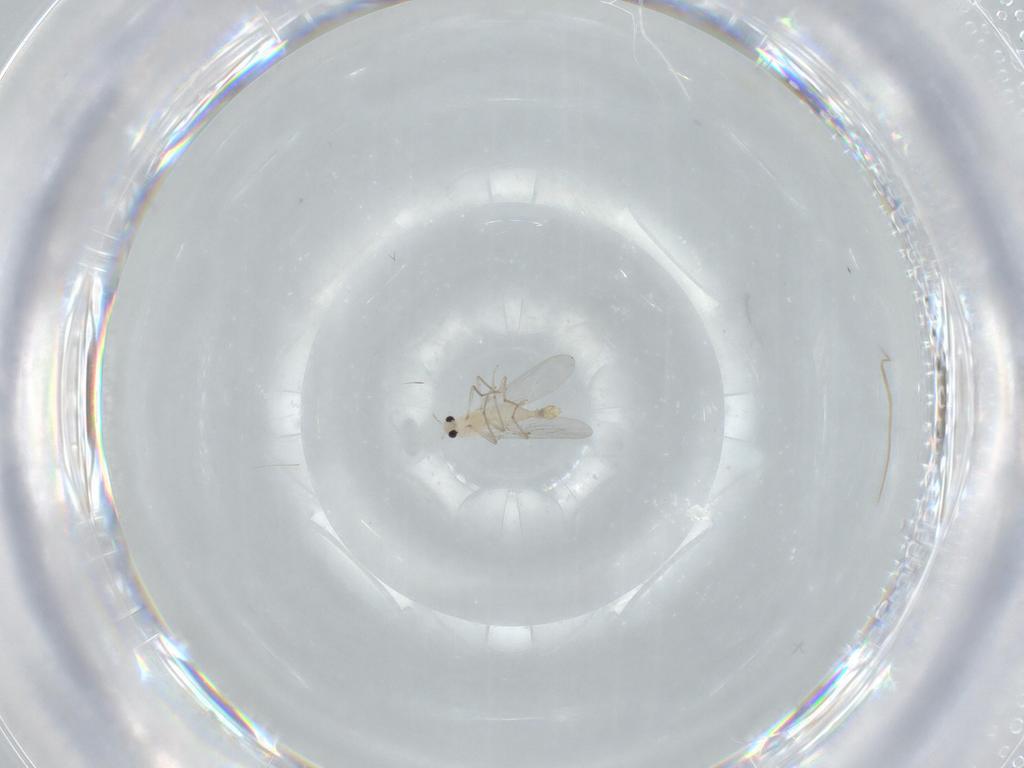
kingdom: Animalia
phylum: Arthropoda
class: Insecta
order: Diptera
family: Chironomidae
